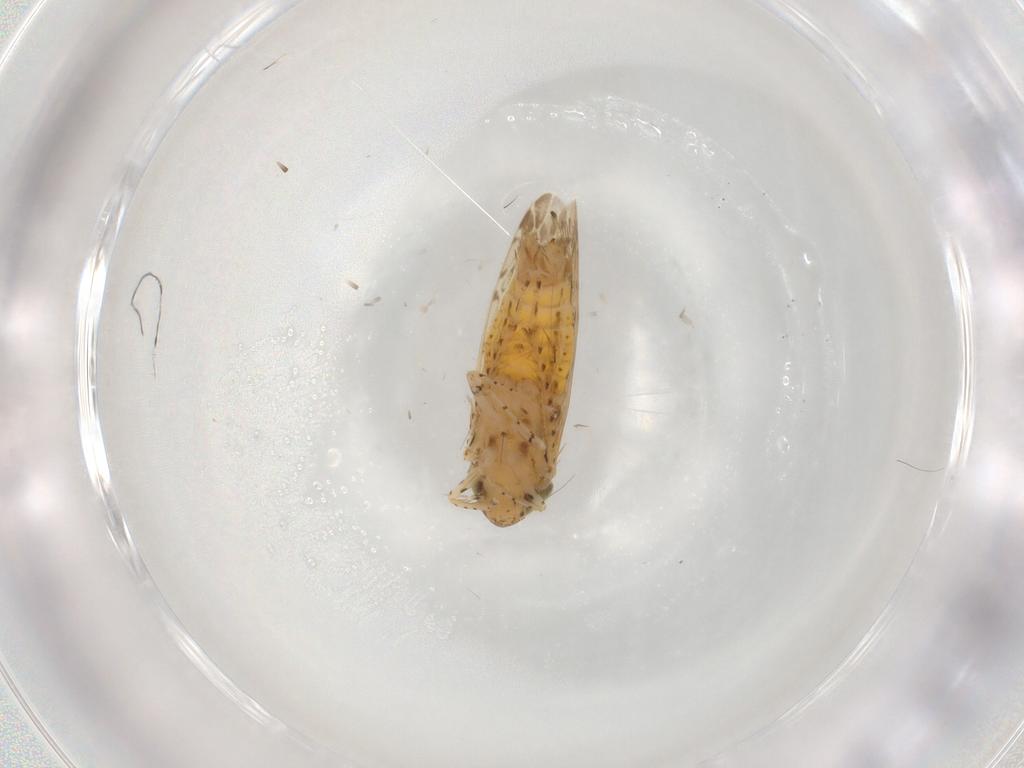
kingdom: Animalia
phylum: Arthropoda
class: Insecta
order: Hemiptera
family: Cicadellidae
